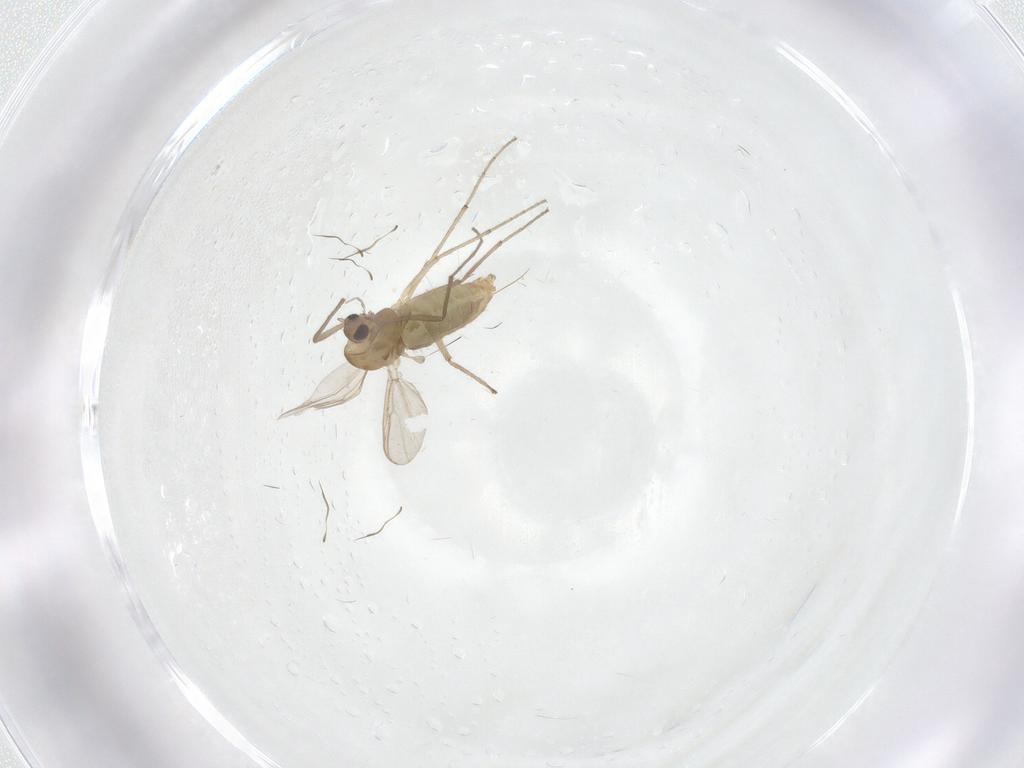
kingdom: Animalia
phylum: Arthropoda
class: Insecta
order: Diptera
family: Chironomidae
